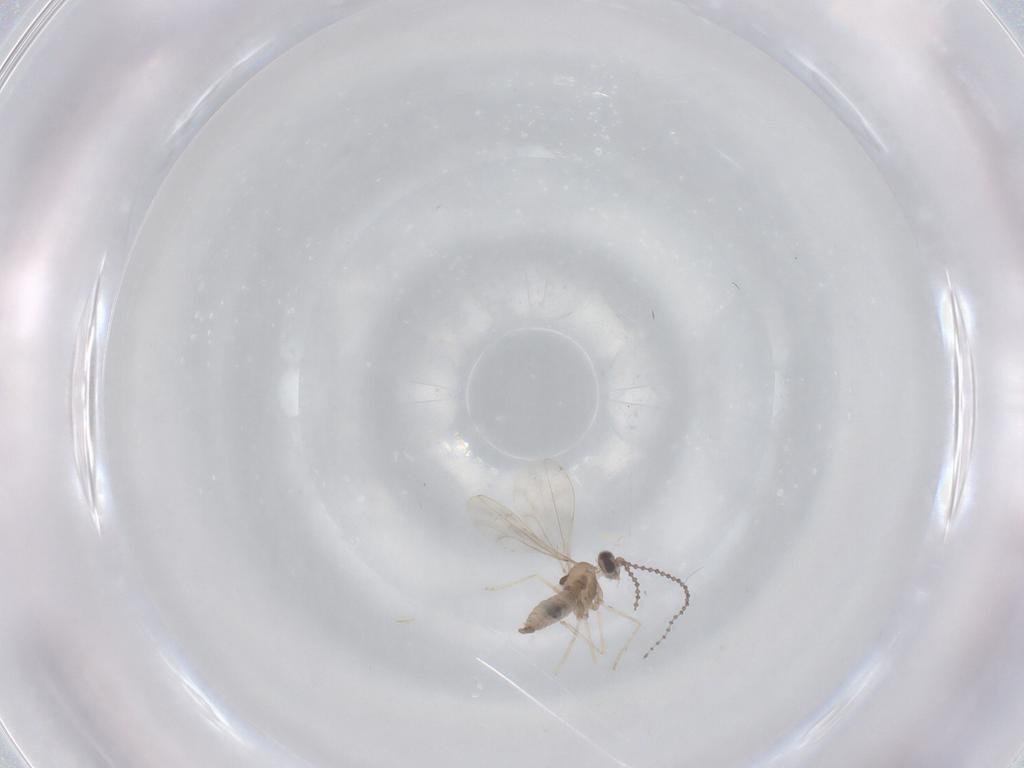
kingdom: Animalia
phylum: Arthropoda
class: Insecta
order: Diptera
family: Cecidomyiidae
